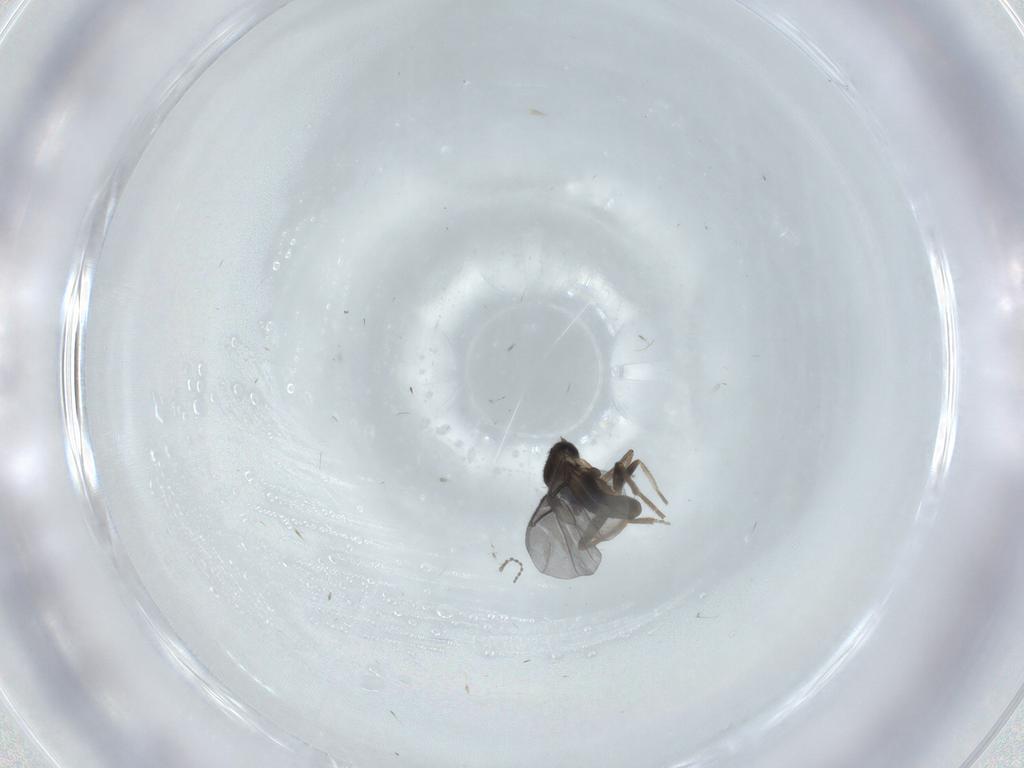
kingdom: Animalia
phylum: Arthropoda
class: Insecta
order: Diptera
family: Phoridae
